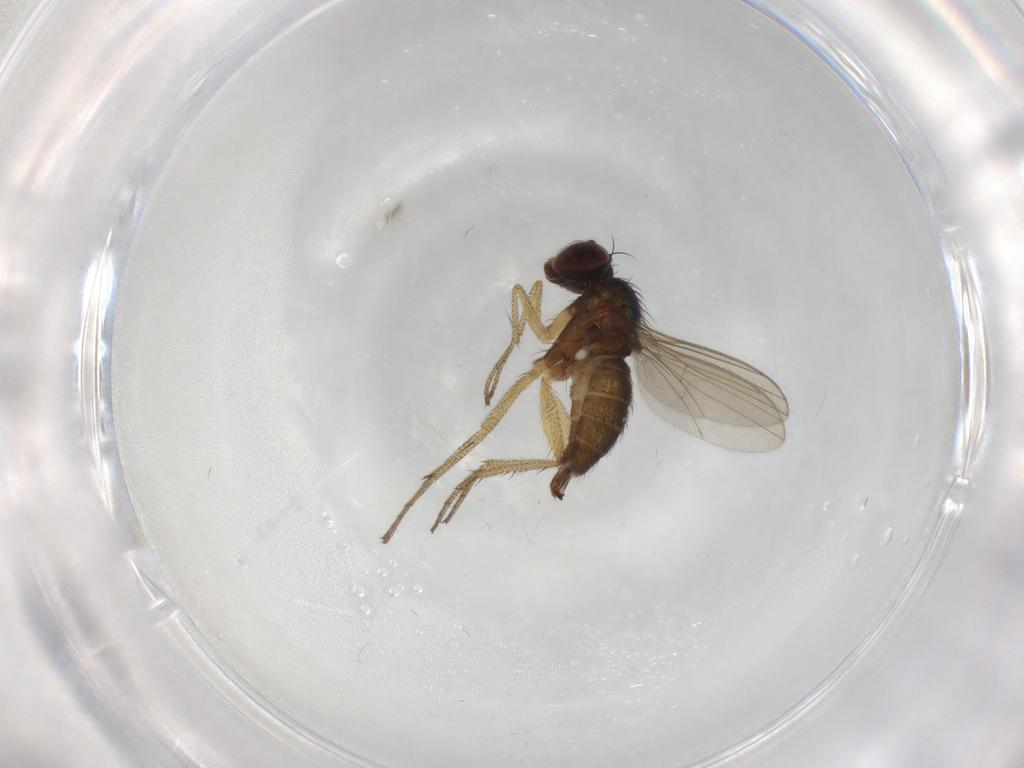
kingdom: Animalia
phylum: Arthropoda
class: Insecta
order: Diptera
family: Dolichopodidae
